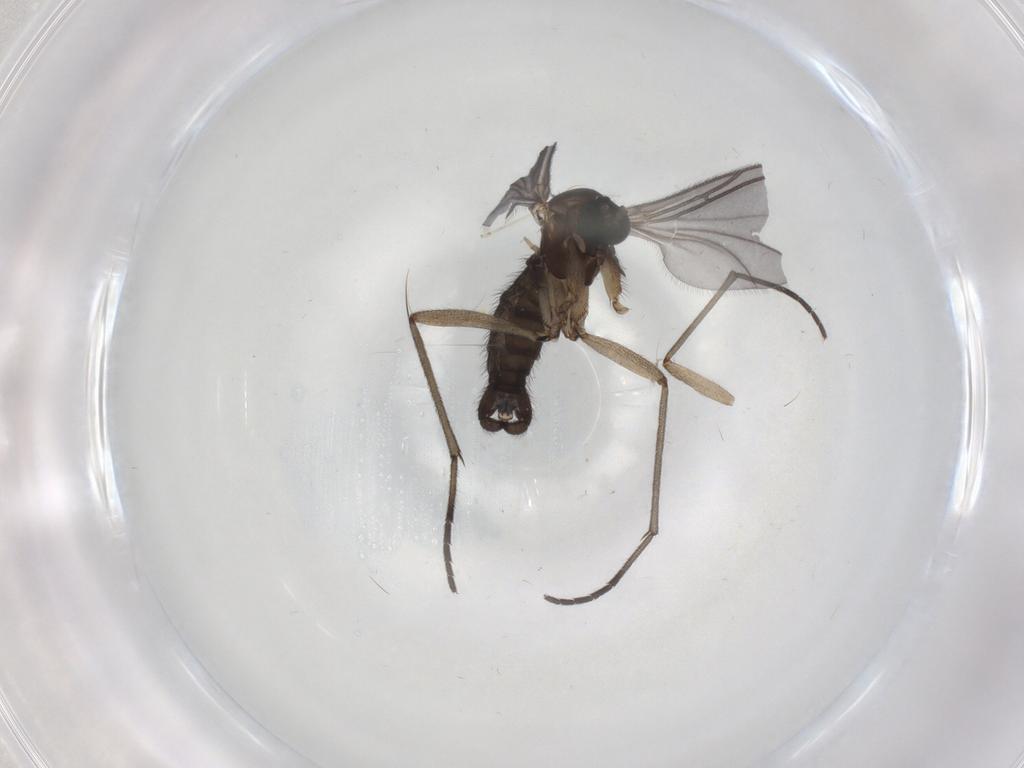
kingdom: Animalia
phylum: Arthropoda
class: Insecta
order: Diptera
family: Sciaridae
